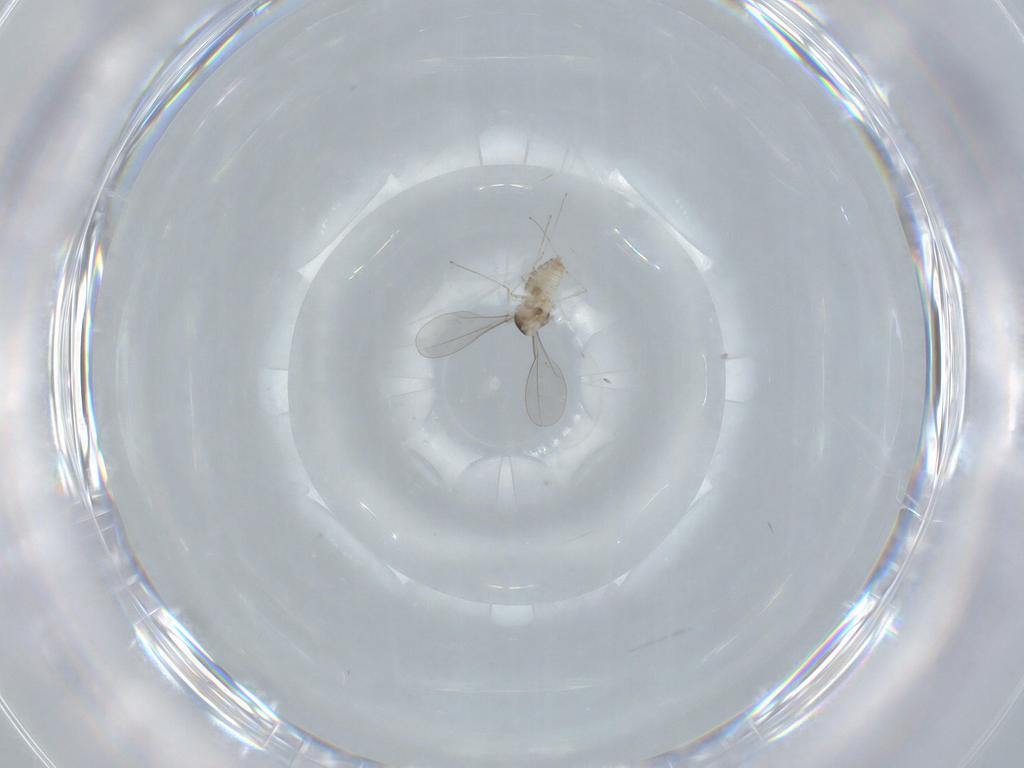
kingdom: Animalia
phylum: Arthropoda
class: Insecta
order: Diptera
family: Cecidomyiidae
